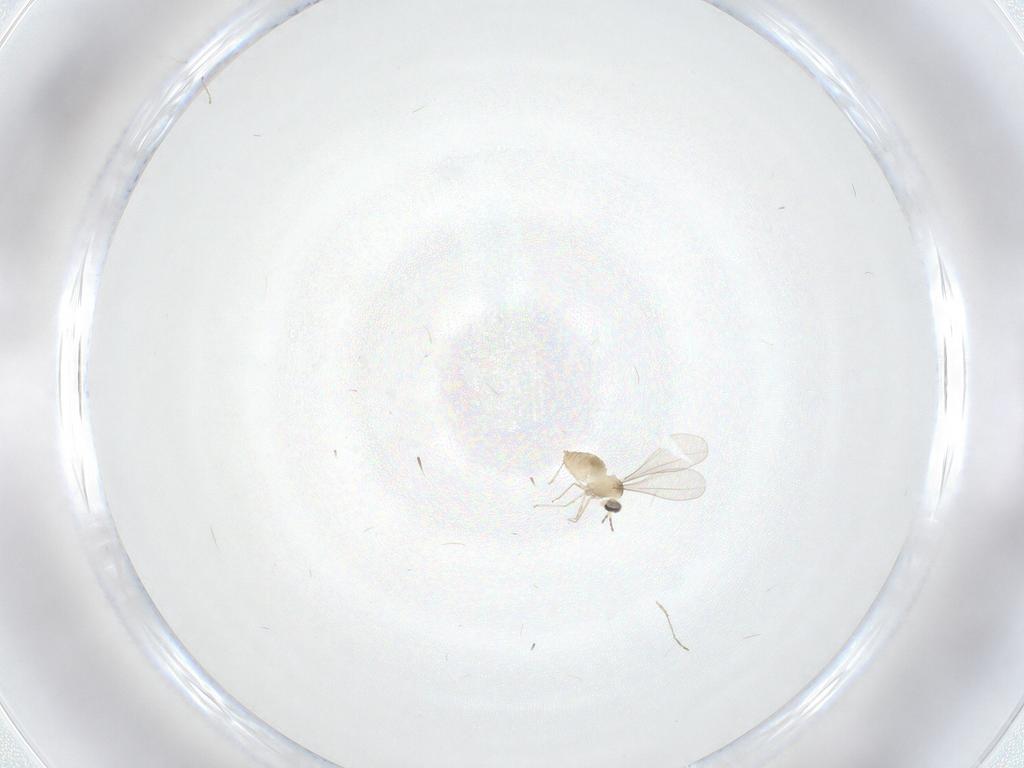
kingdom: Animalia
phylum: Arthropoda
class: Insecta
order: Diptera
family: Cecidomyiidae
